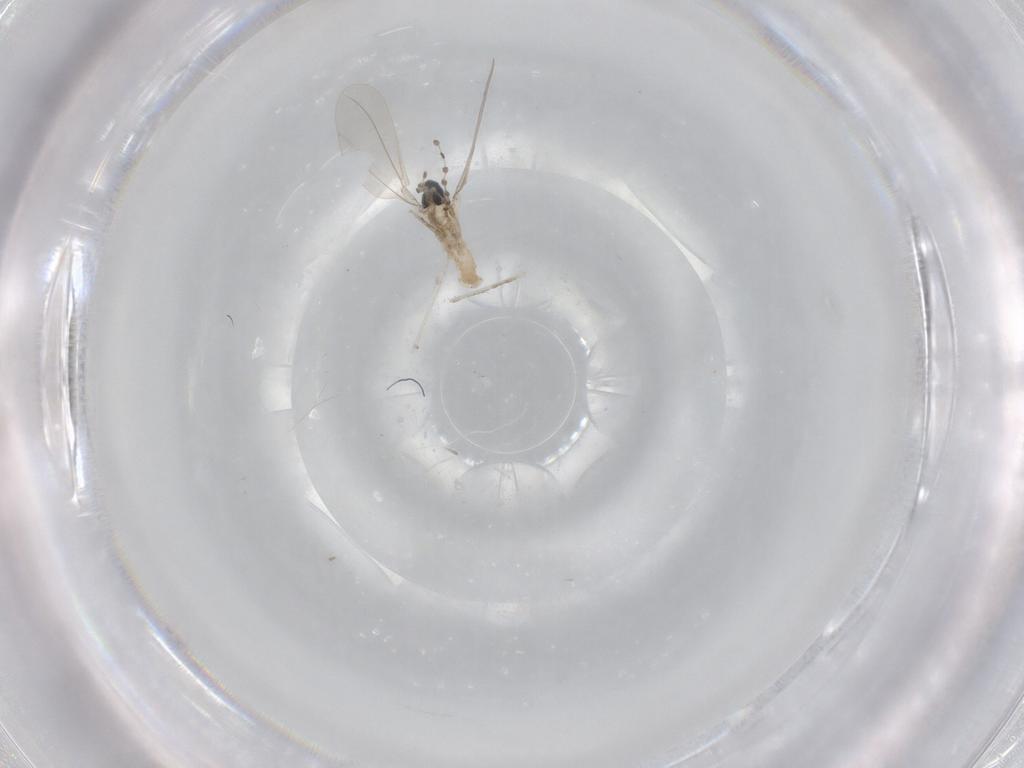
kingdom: Animalia
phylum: Arthropoda
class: Insecta
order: Diptera
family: Cecidomyiidae
